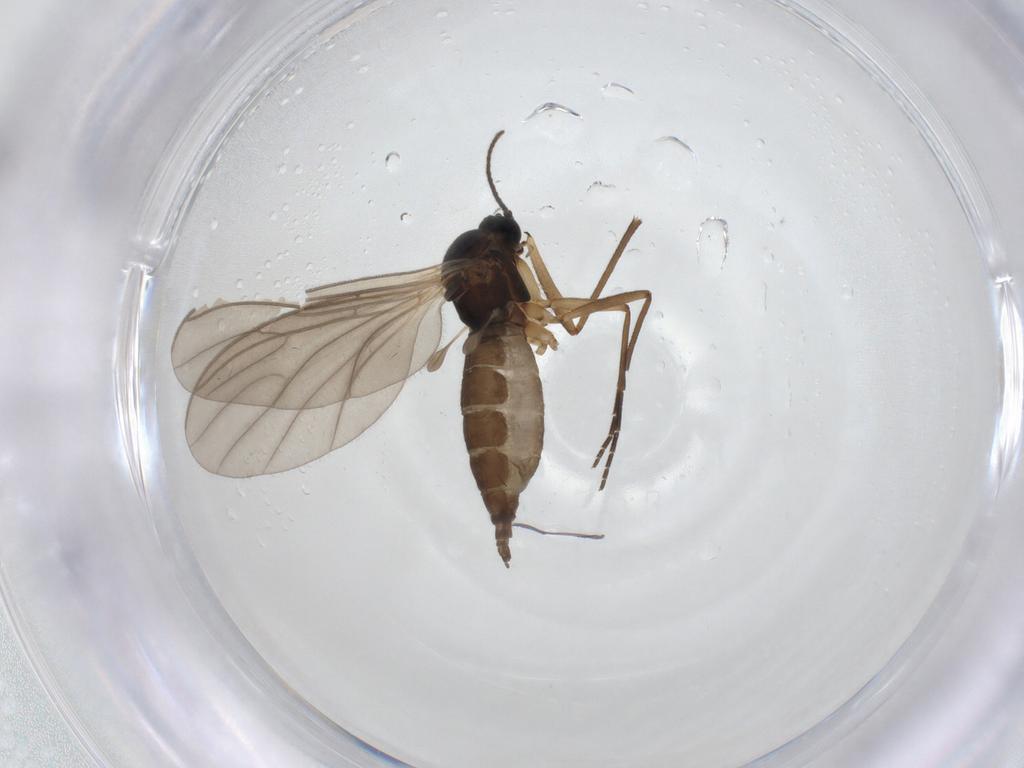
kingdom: Animalia
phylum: Arthropoda
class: Insecta
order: Diptera
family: Sciaridae
